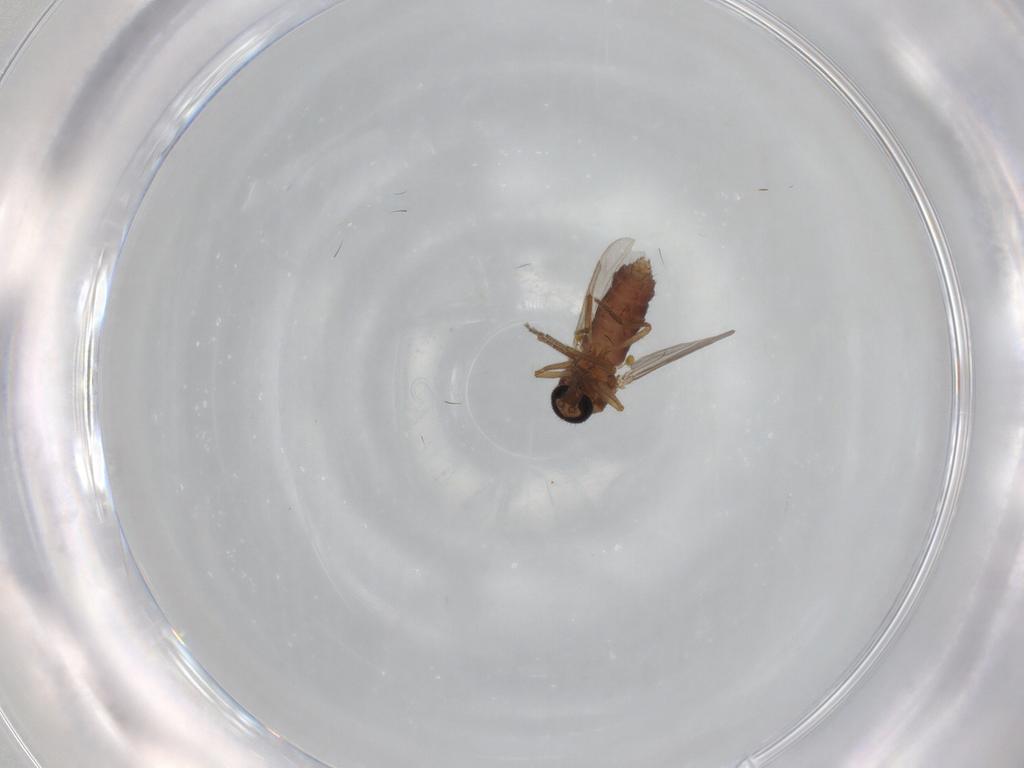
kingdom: Animalia
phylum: Arthropoda
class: Insecta
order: Diptera
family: Ceratopogonidae
